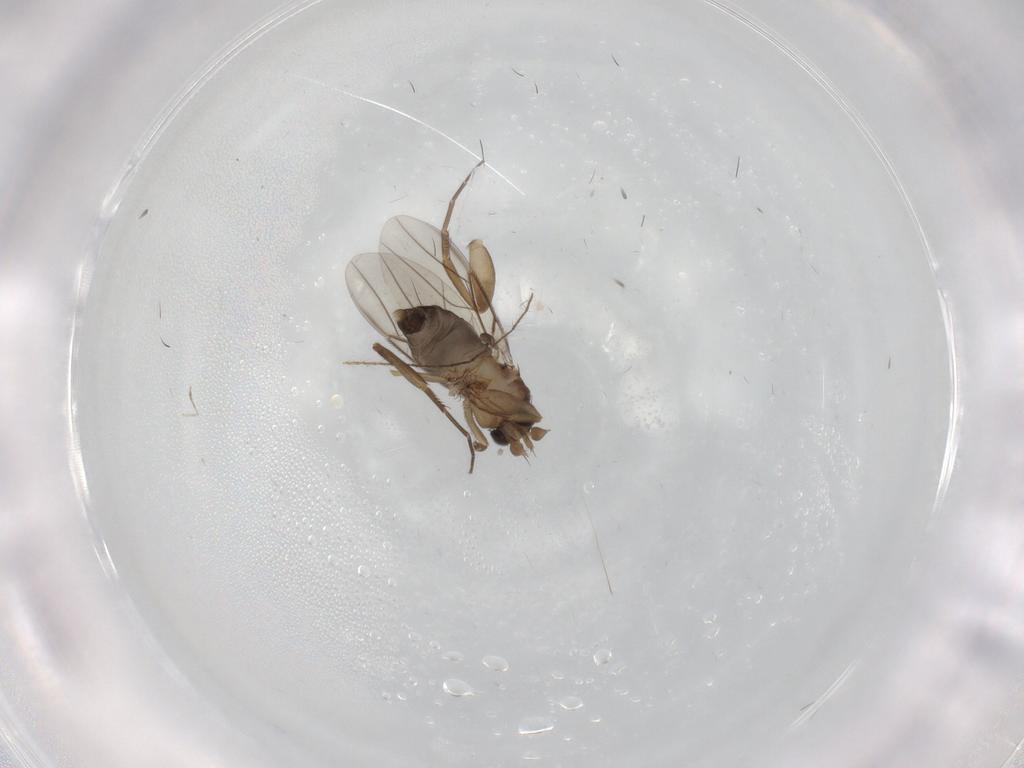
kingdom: Animalia
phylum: Arthropoda
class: Insecta
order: Diptera
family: Phoridae
